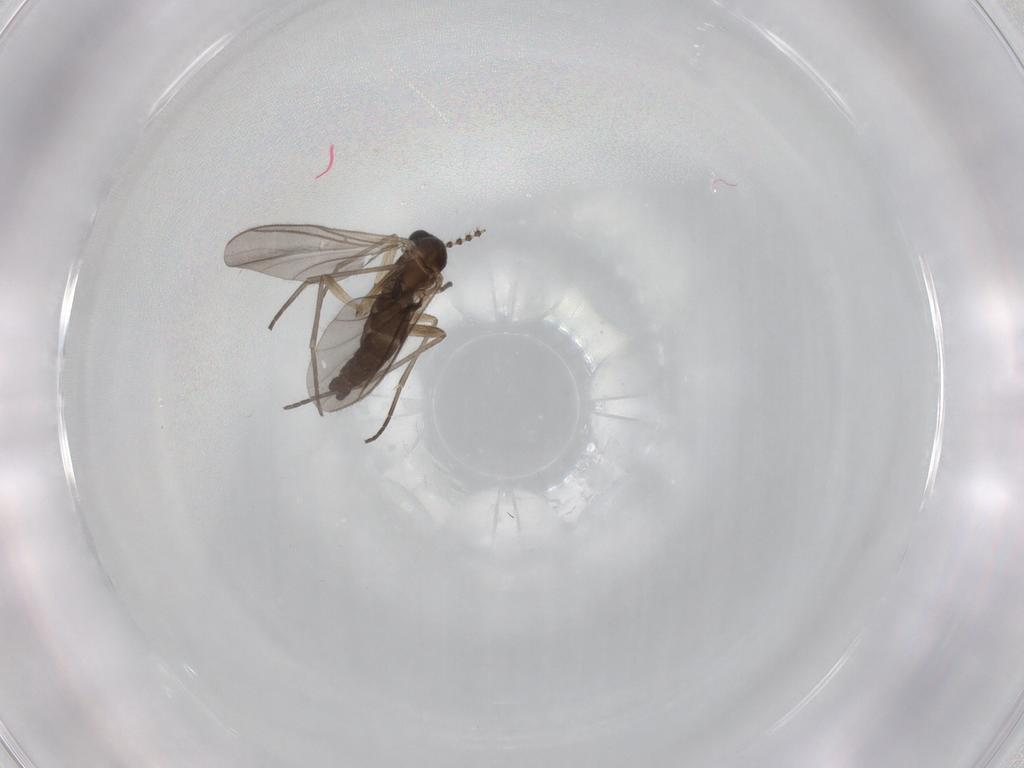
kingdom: Animalia
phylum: Arthropoda
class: Insecta
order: Diptera
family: Sciaridae
